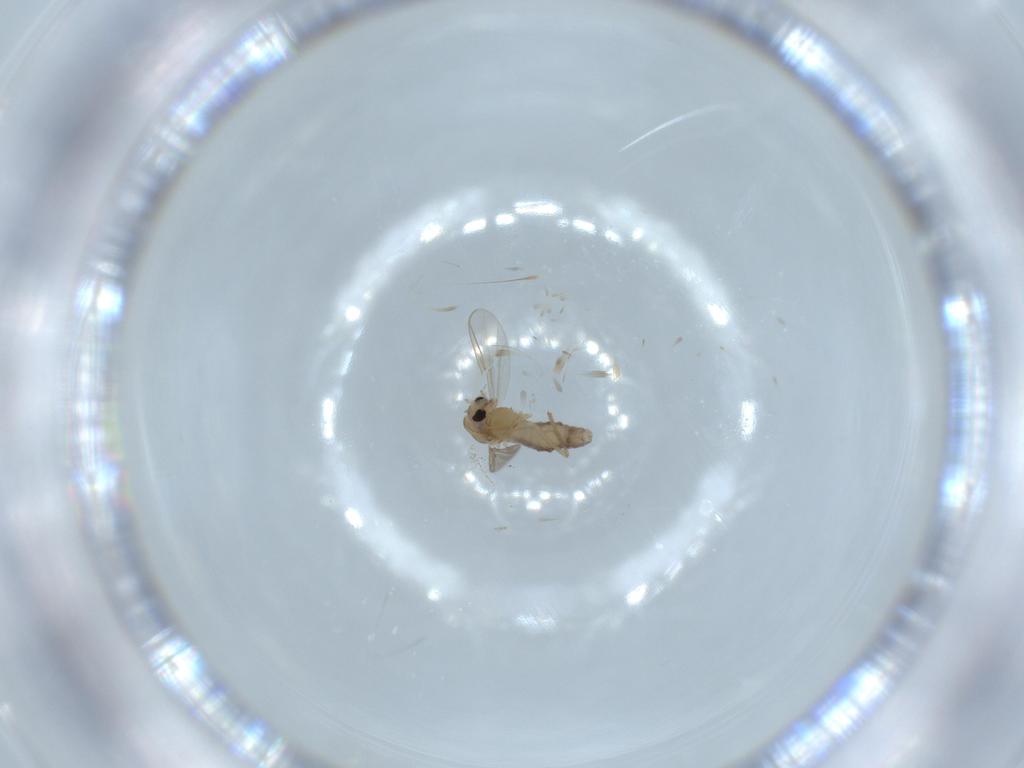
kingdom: Animalia
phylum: Arthropoda
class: Insecta
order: Diptera
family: Chironomidae
